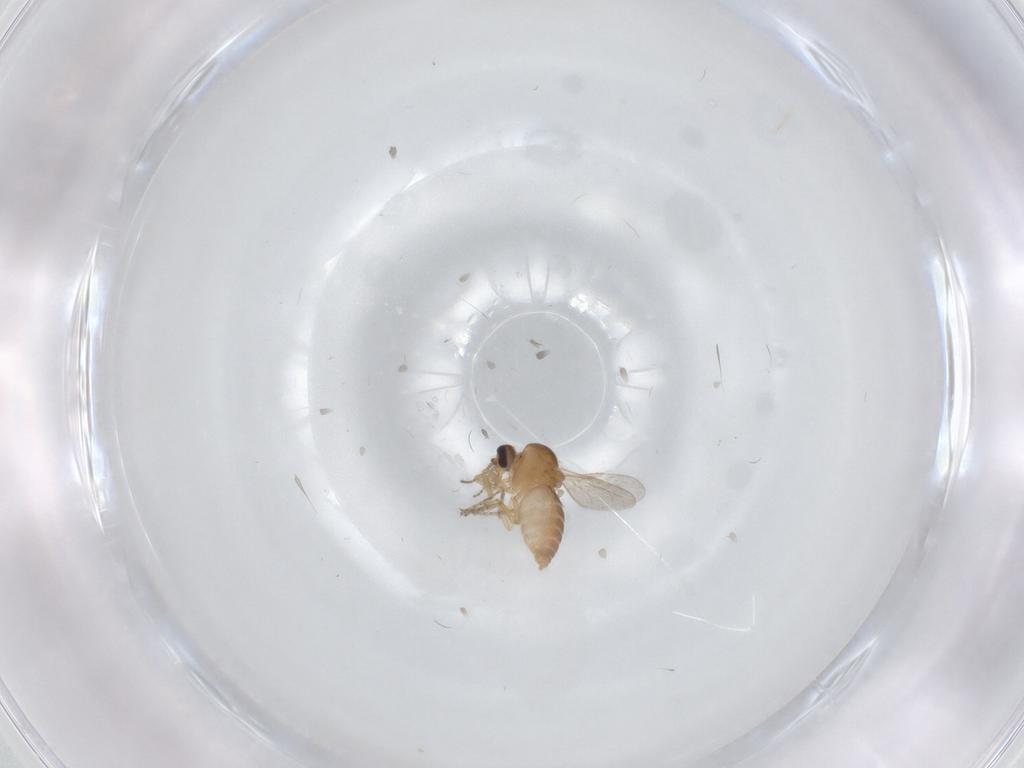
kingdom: Animalia
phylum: Arthropoda
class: Insecta
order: Diptera
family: Ceratopogonidae
